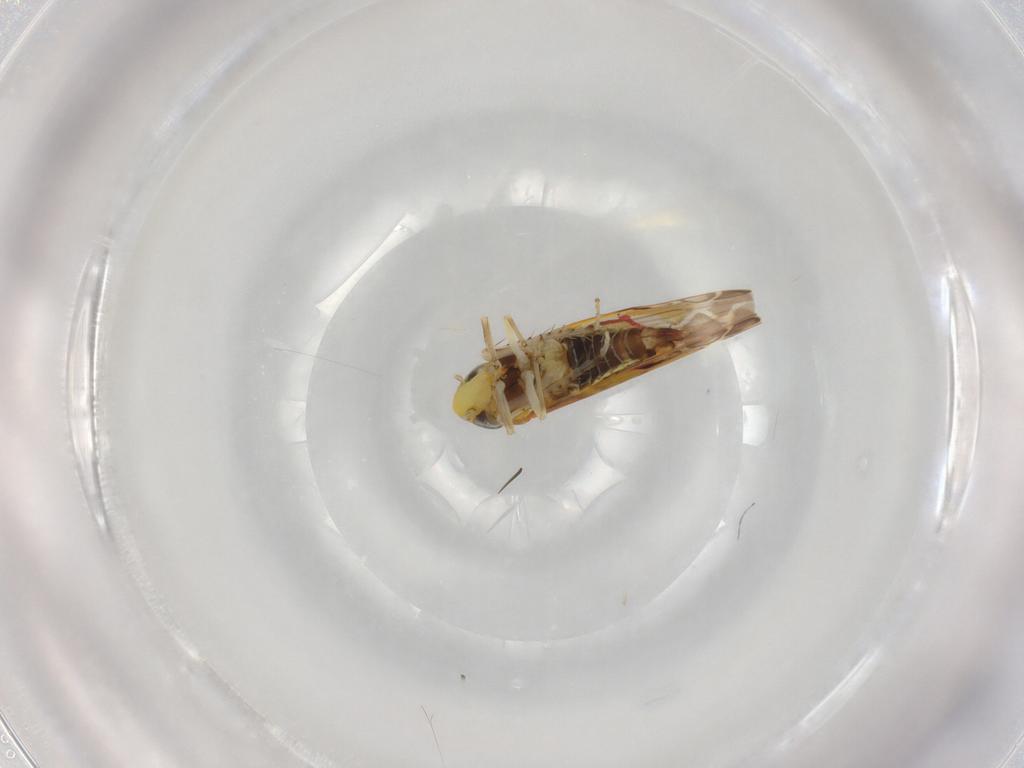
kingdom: Animalia
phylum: Arthropoda
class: Insecta
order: Hemiptera
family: Cicadellidae
